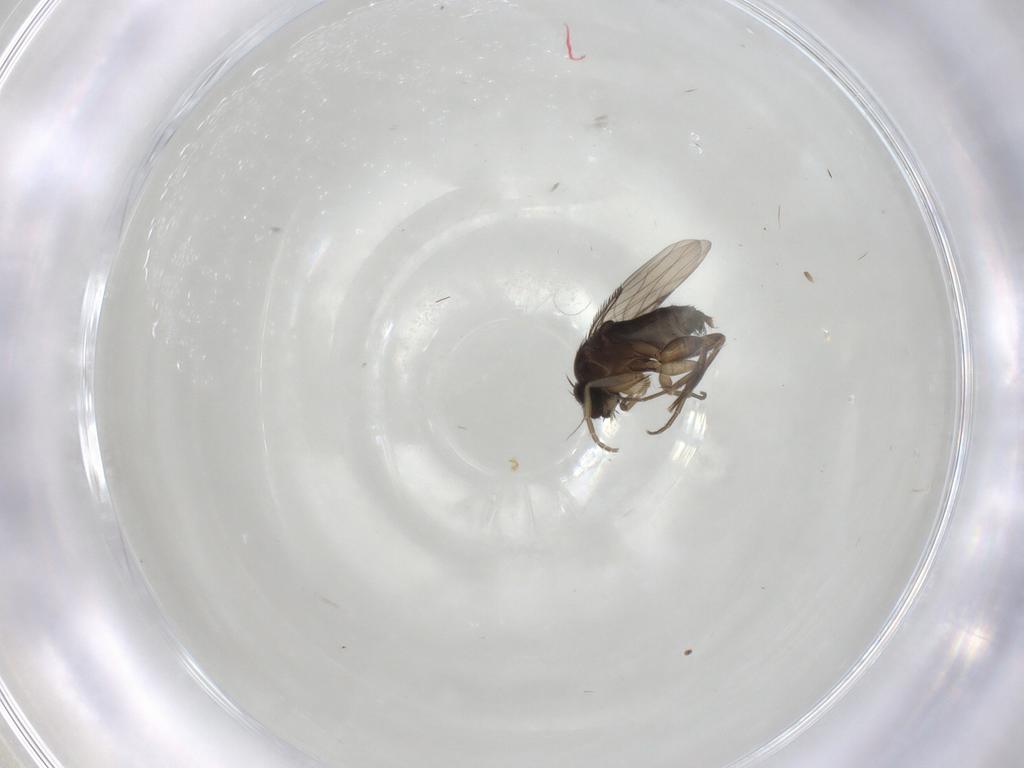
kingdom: Animalia
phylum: Arthropoda
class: Insecta
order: Diptera
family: Phoridae
